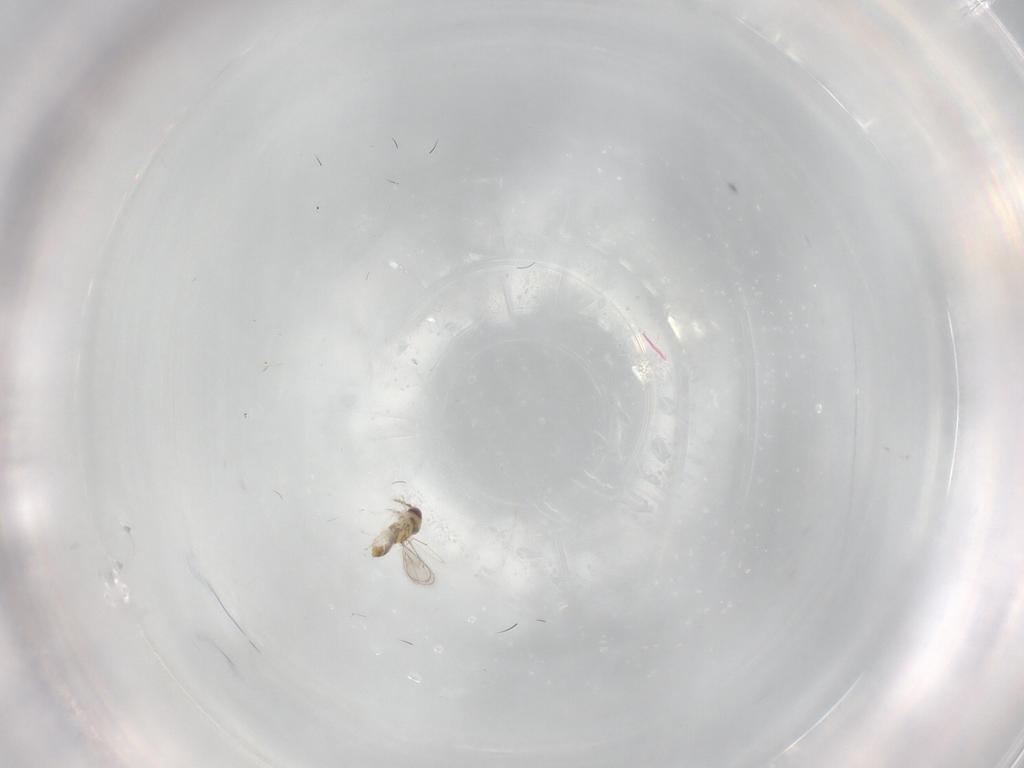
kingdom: Animalia
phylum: Arthropoda
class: Insecta
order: Hymenoptera
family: Eulophidae
